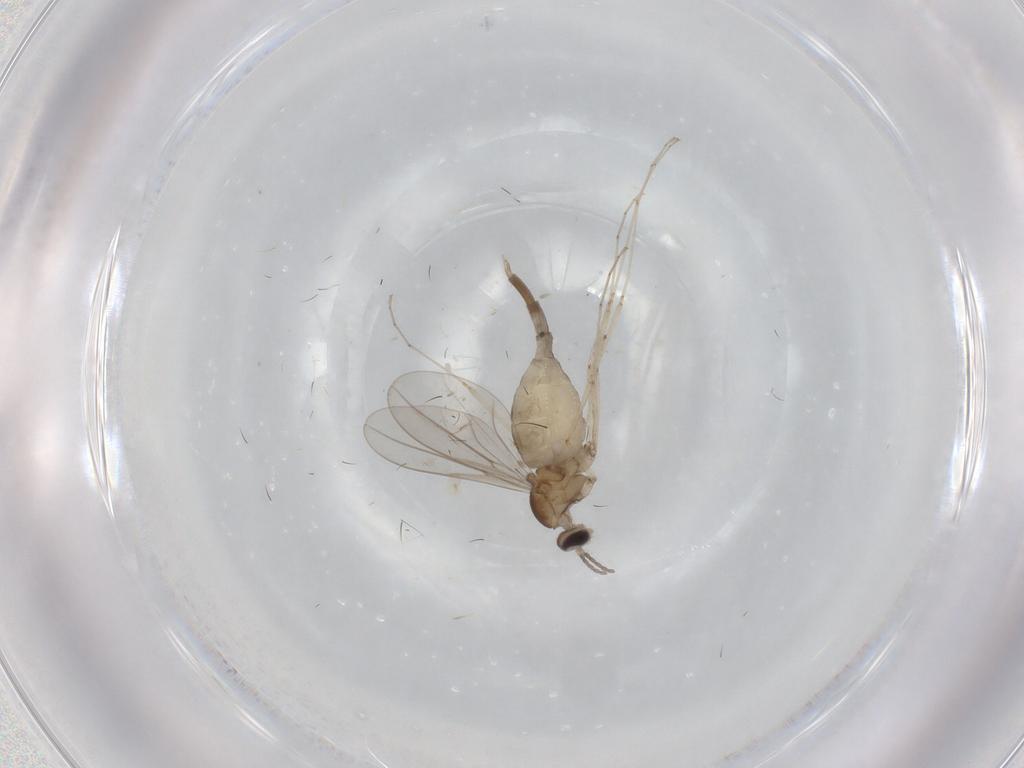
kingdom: Animalia
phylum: Arthropoda
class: Insecta
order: Diptera
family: Cecidomyiidae
